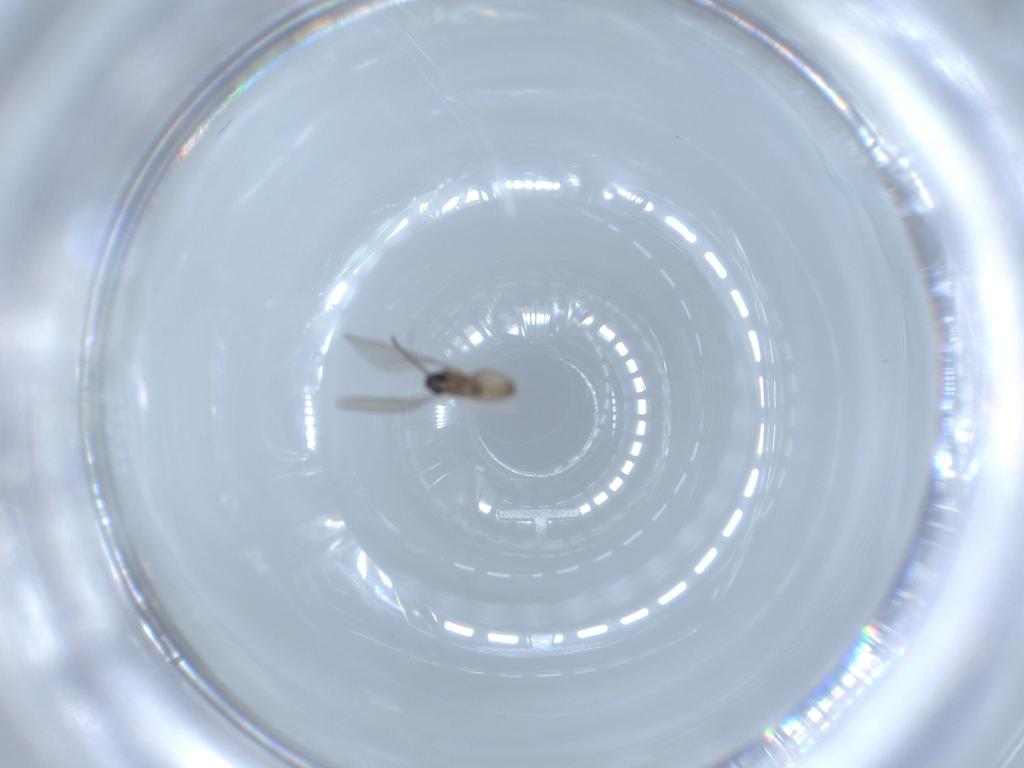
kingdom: Animalia
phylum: Arthropoda
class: Insecta
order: Diptera
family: Cecidomyiidae
